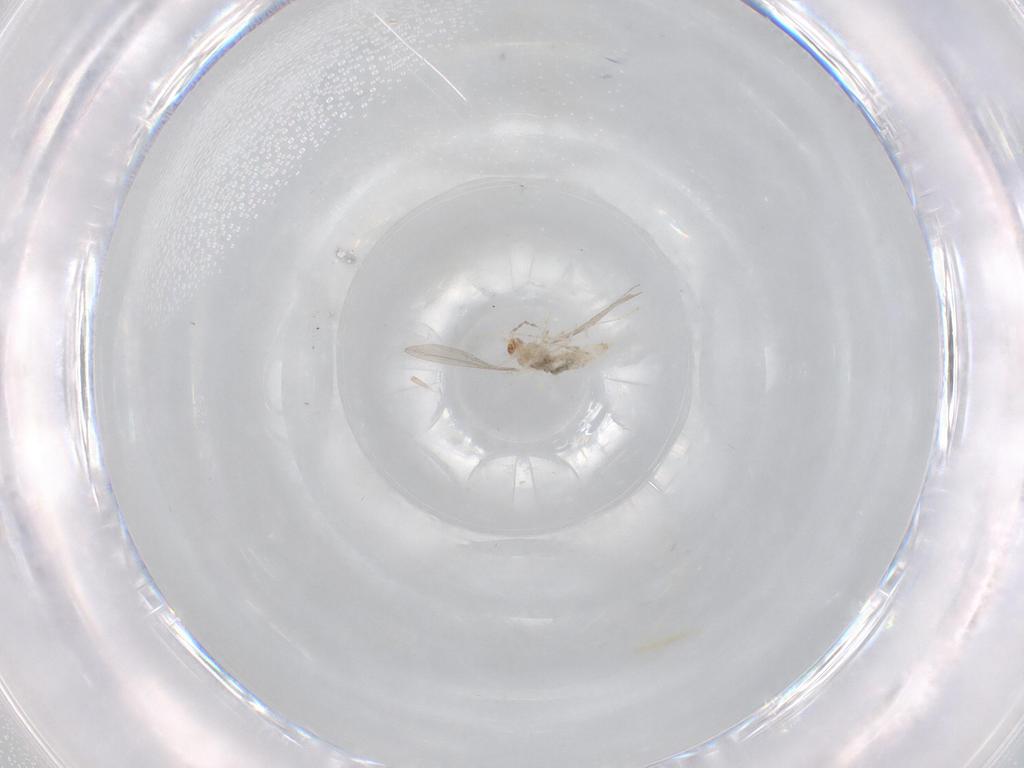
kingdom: Animalia
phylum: Arthropoda
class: Insecta
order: Diptera
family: Cecidomyiidae
